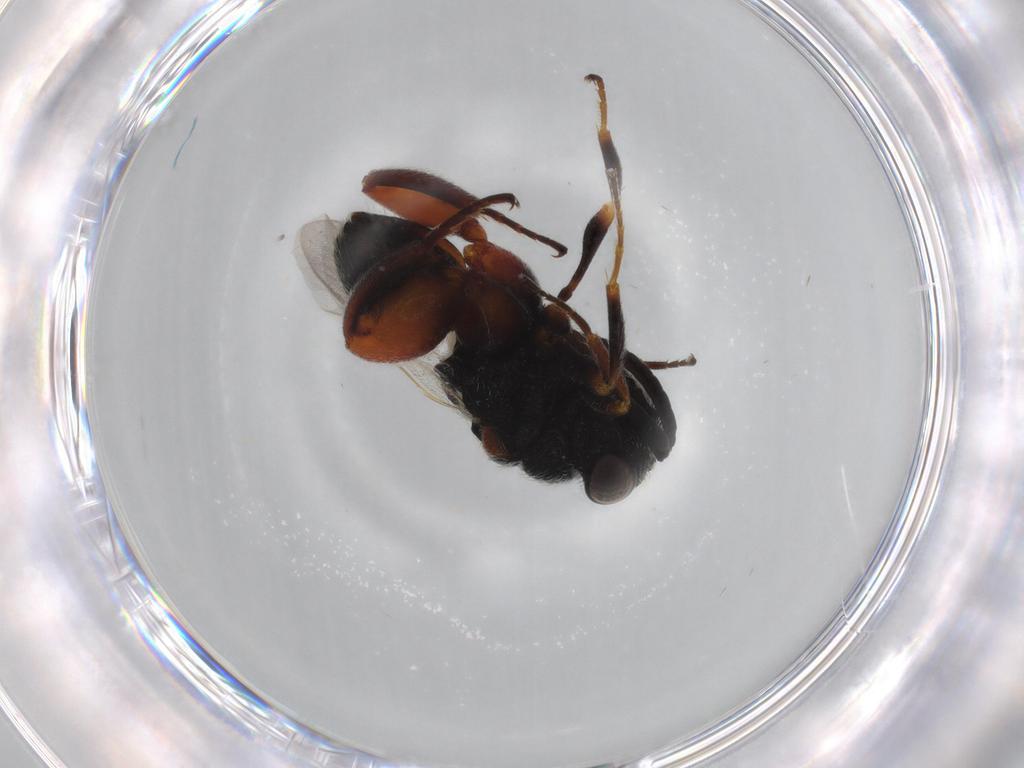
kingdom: Animalia
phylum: Arthropoda
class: Insecta
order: Hymenoptera
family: Chalcididae
